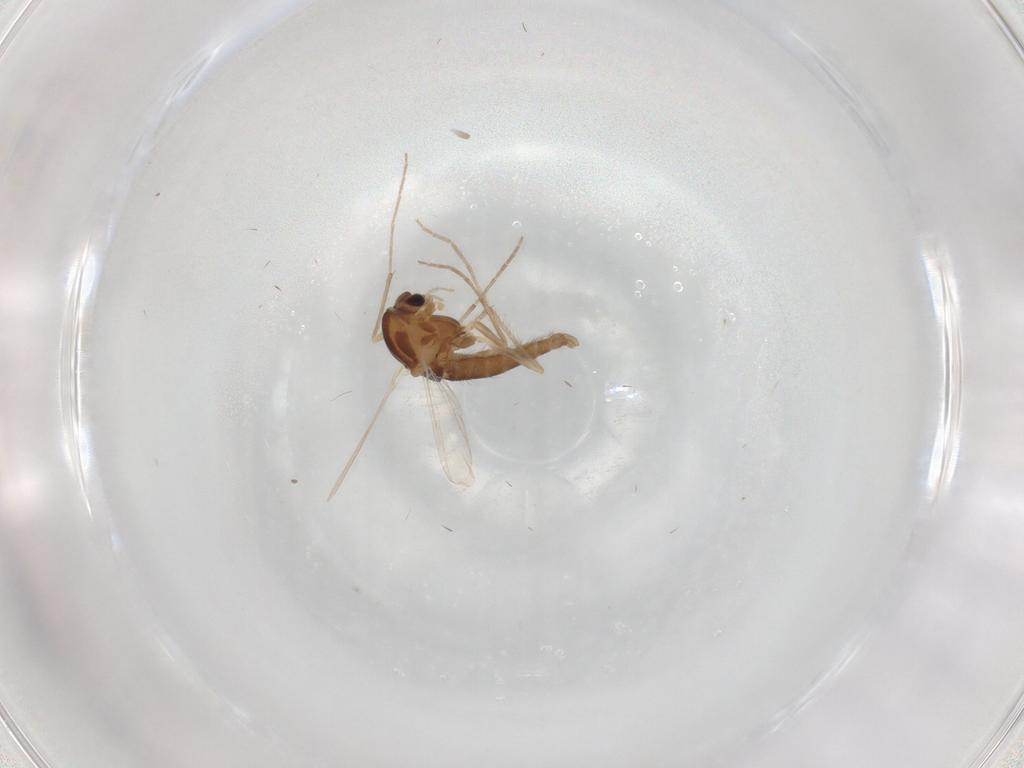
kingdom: Animalia
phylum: Arthropoda
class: Insecta
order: Diptera
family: Chironomidae
